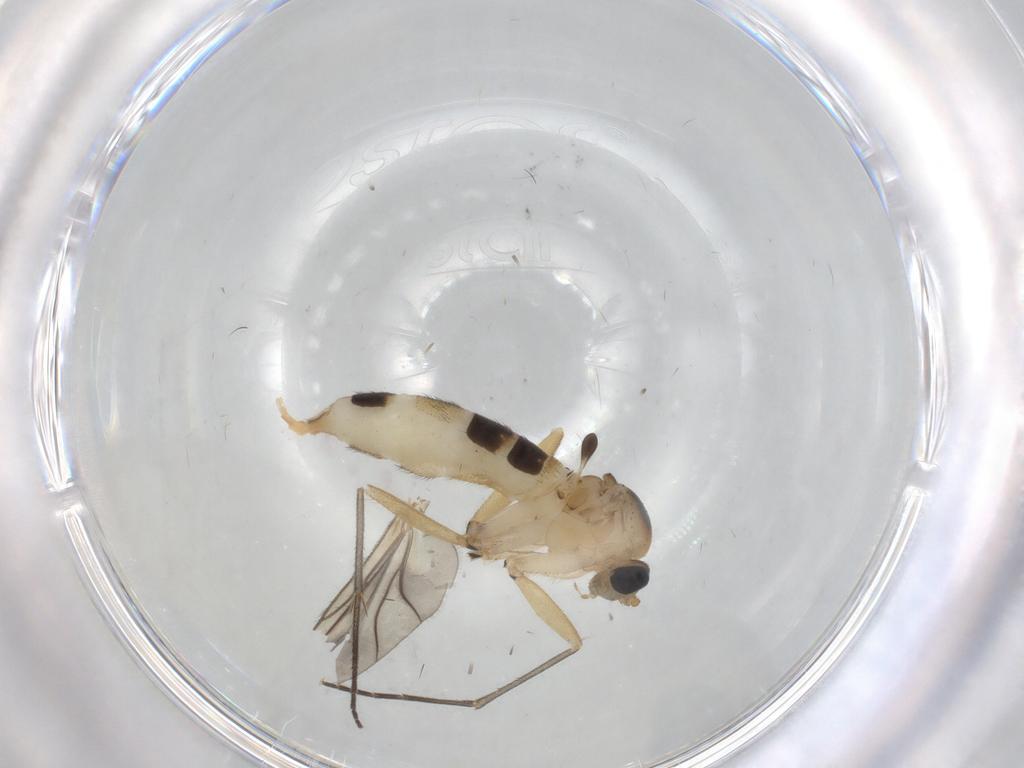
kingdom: Animalia
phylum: Arthropoda
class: Insecta
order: Diptera
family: Sciaridae
